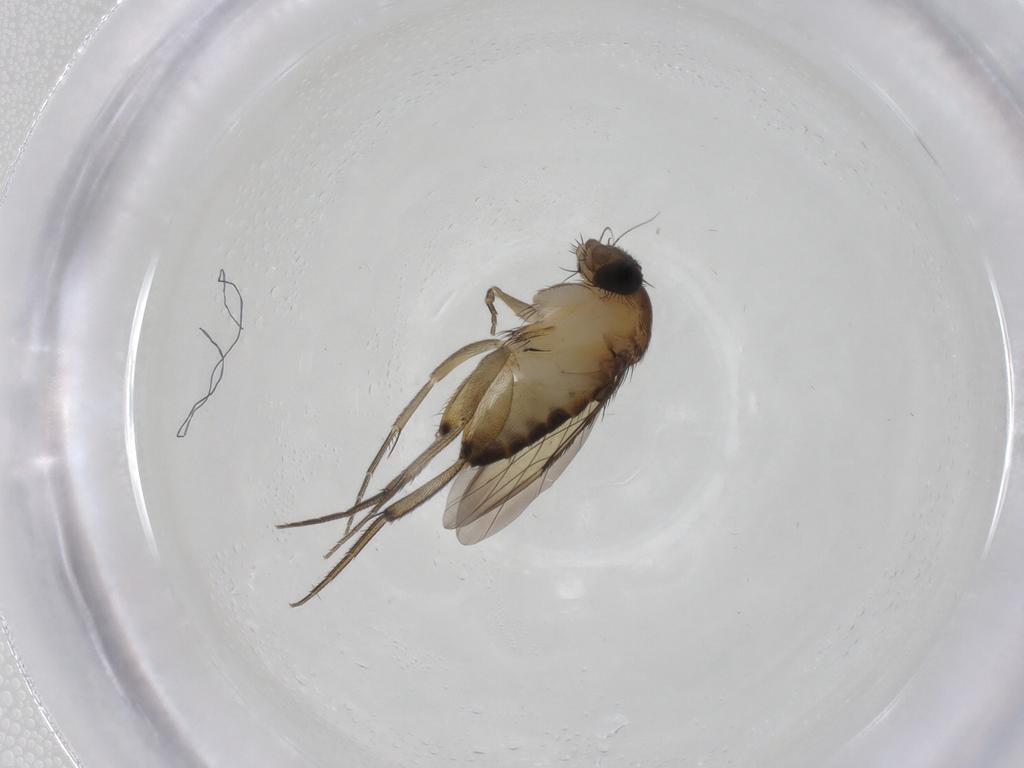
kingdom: Animalia
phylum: Arthropoda
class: Insecta
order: Diptera
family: Phoridae
